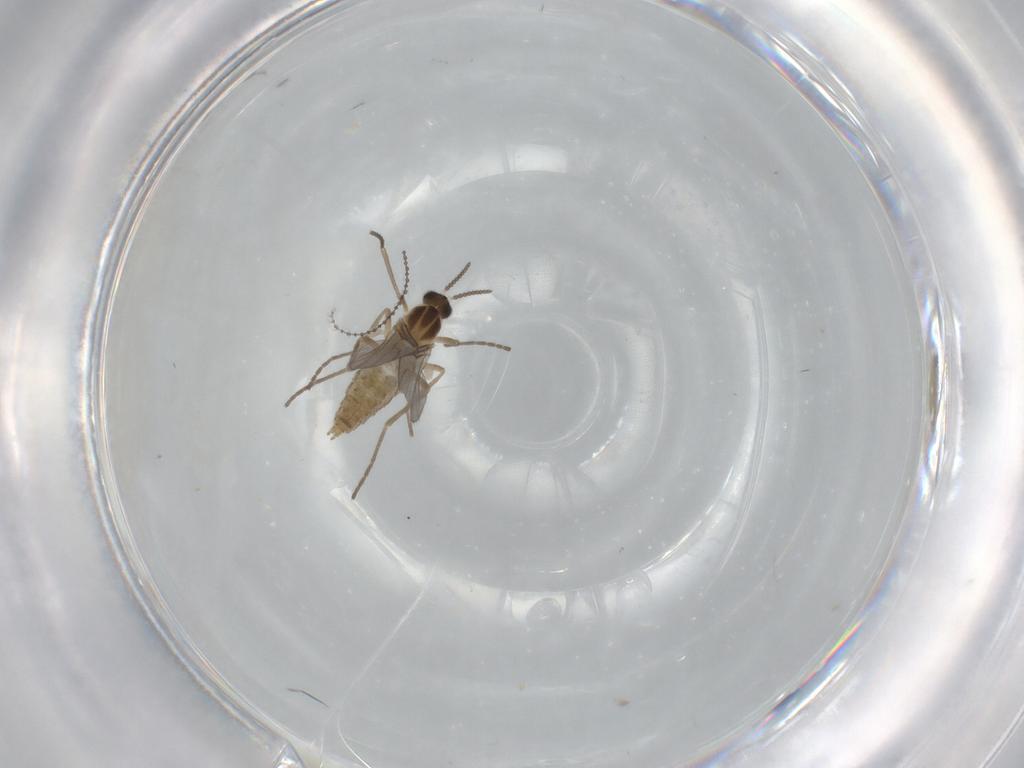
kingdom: Animalia
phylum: Arthropoda
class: Insecta
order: Diptera
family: Cecidomyiidae
